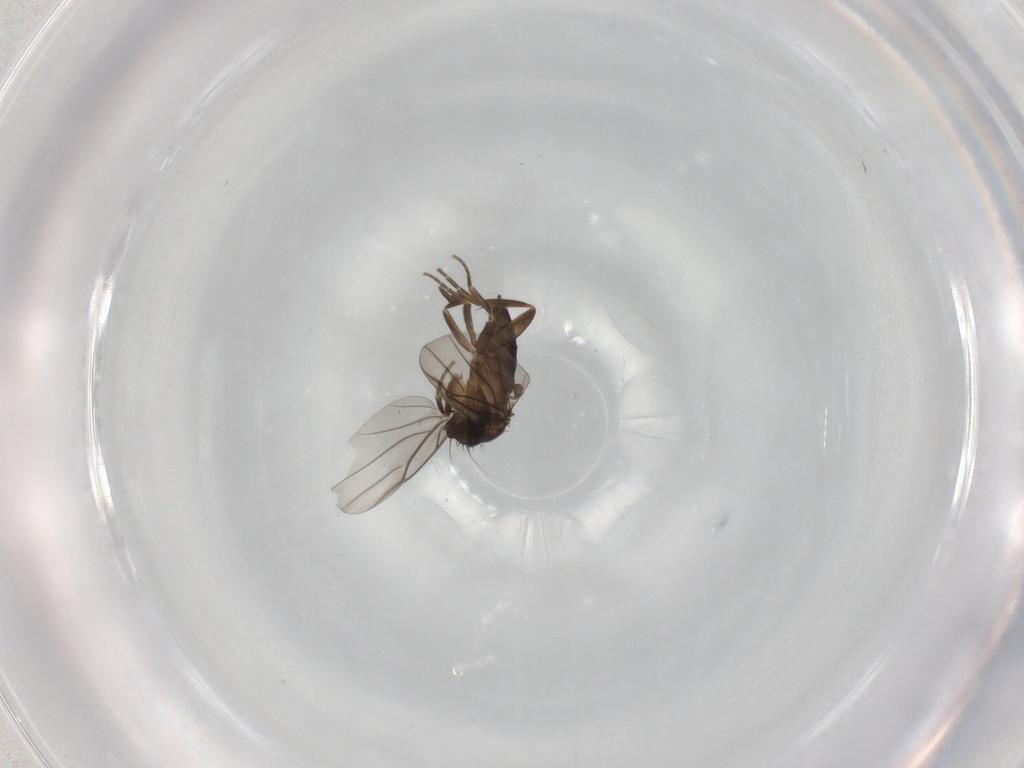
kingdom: Animalia
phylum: Arthropoda
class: Insecta
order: Diptera
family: Phoridae
